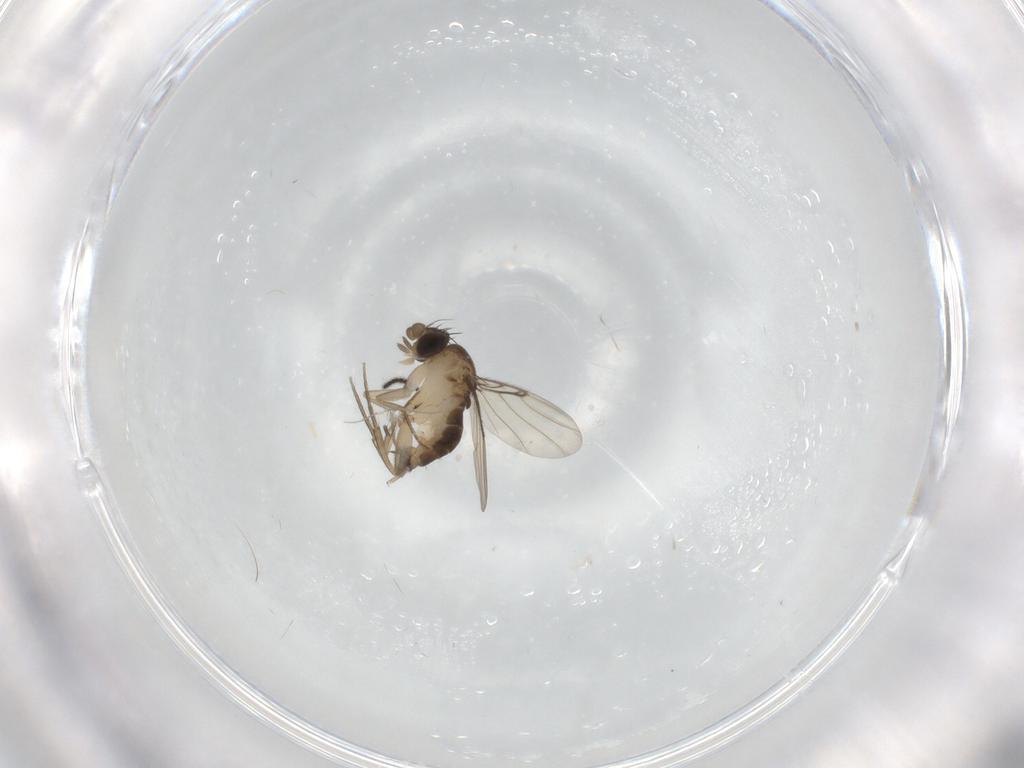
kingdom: Animalia
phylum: Arthropoda
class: Insecta
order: Diptera
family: Phoridae
